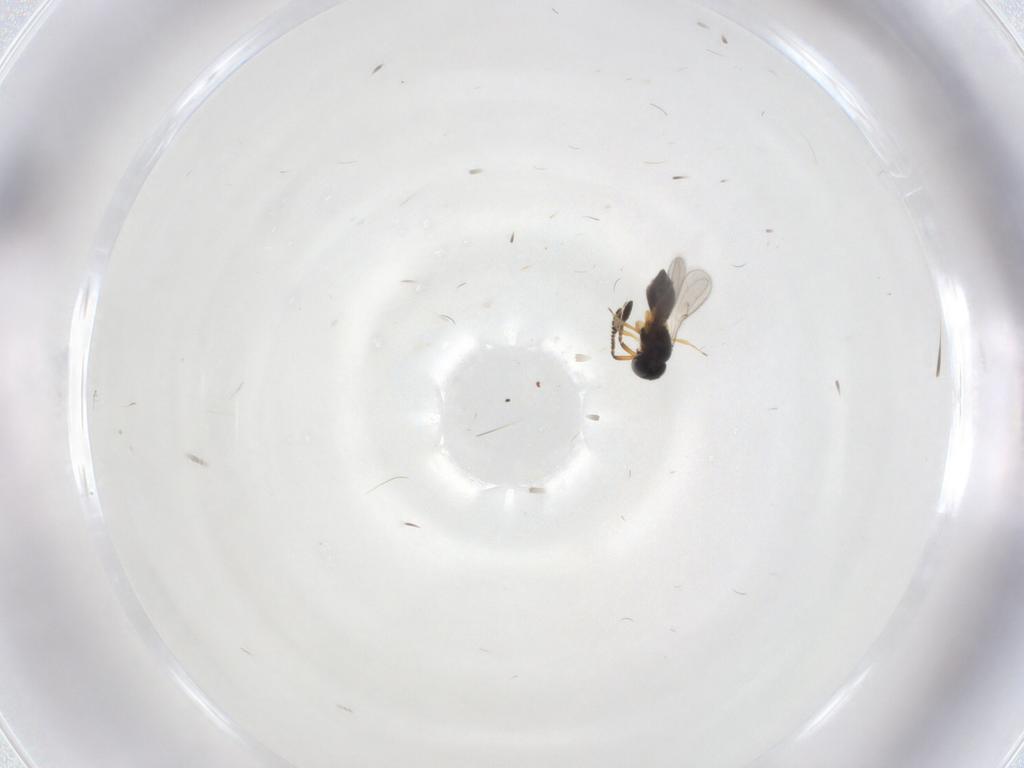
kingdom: Animalia
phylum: Arthropoda
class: Insecta
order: Hymenoptera
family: Scelionidae
